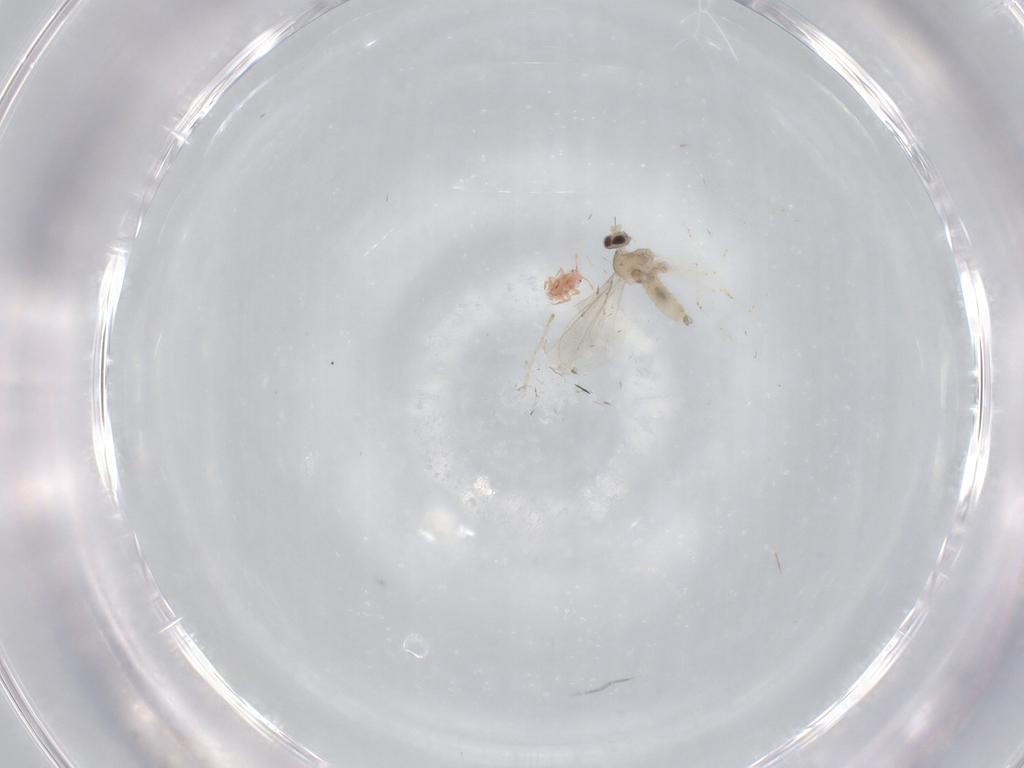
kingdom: Animalia
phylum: Arthropoda
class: Insecta
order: Diptera
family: Cecidomyiidae
